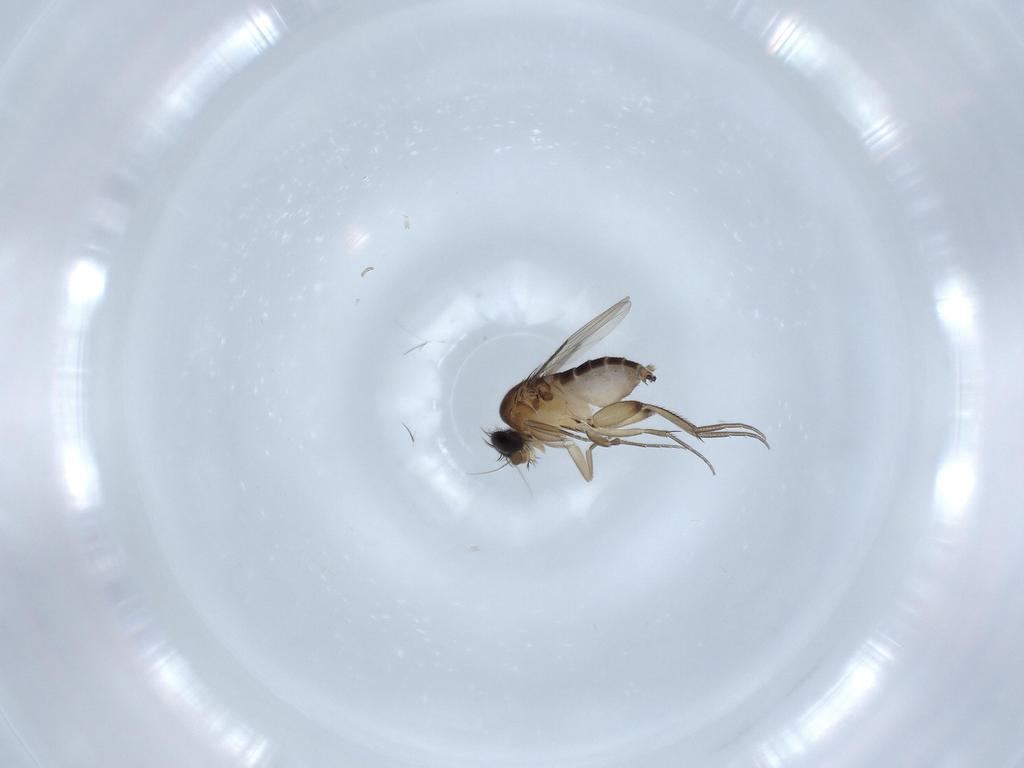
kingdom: Animalia
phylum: Arthropoda
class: Insecta
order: Diptera
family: Phoridae
